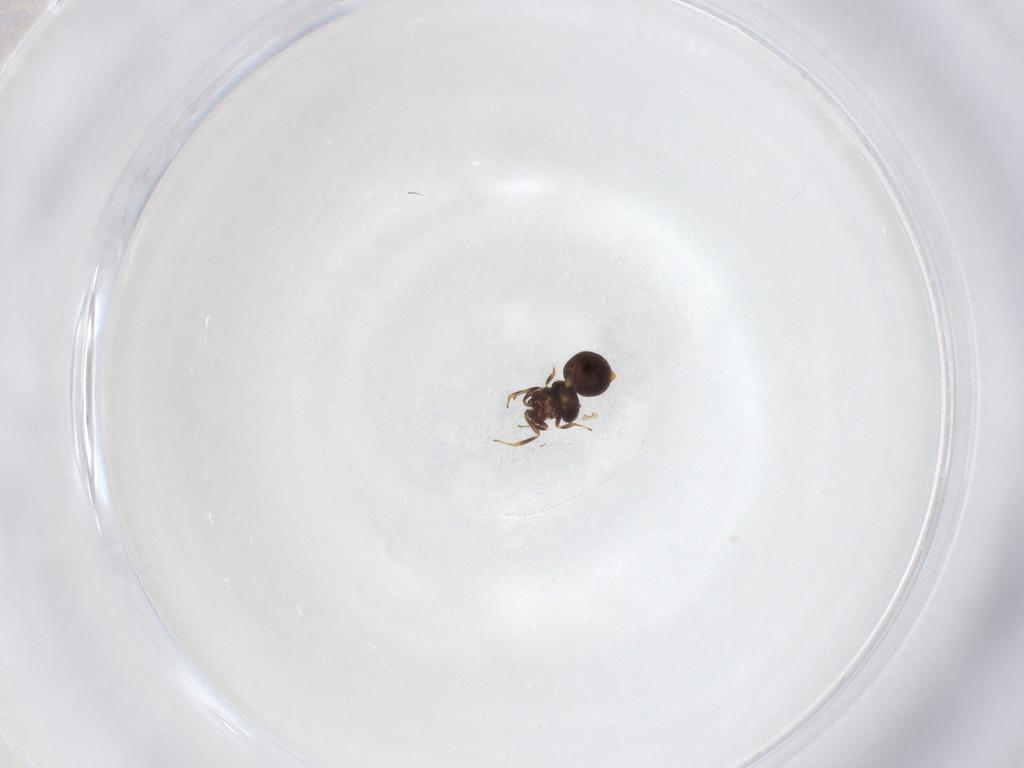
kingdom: Animalia
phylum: Arthropoda
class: Insecta
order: Hymenoptera
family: Scelionidae
